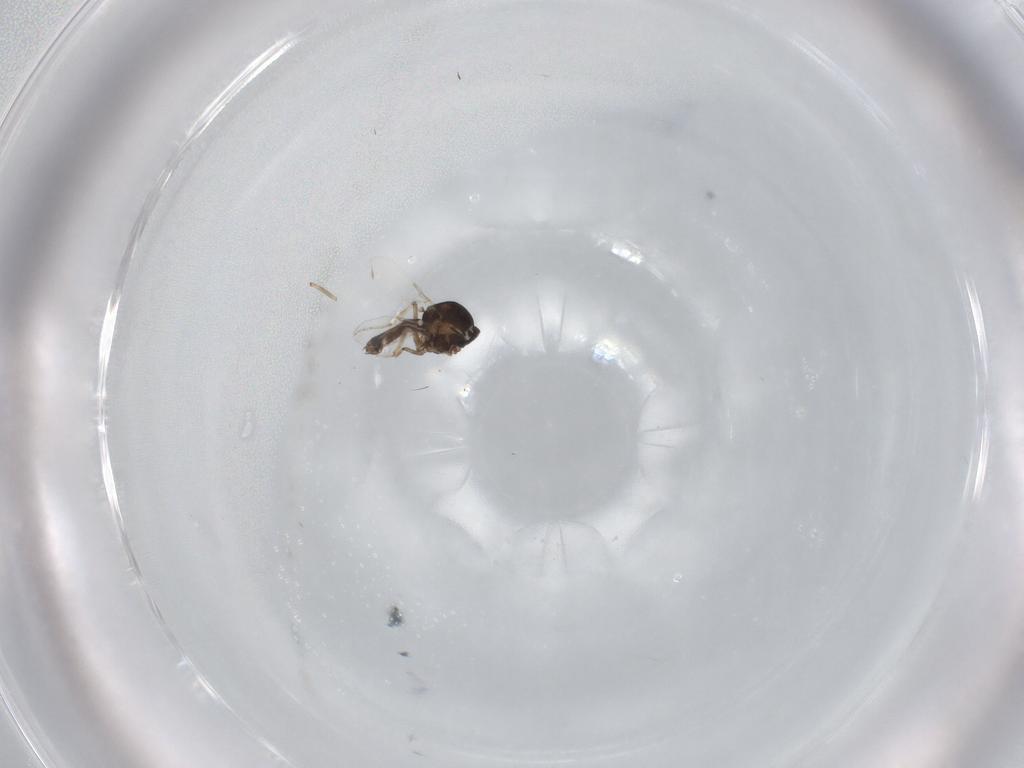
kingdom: Animalia
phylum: Arthropoda
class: Insecta
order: Diptera
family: Ceratopogonidae
